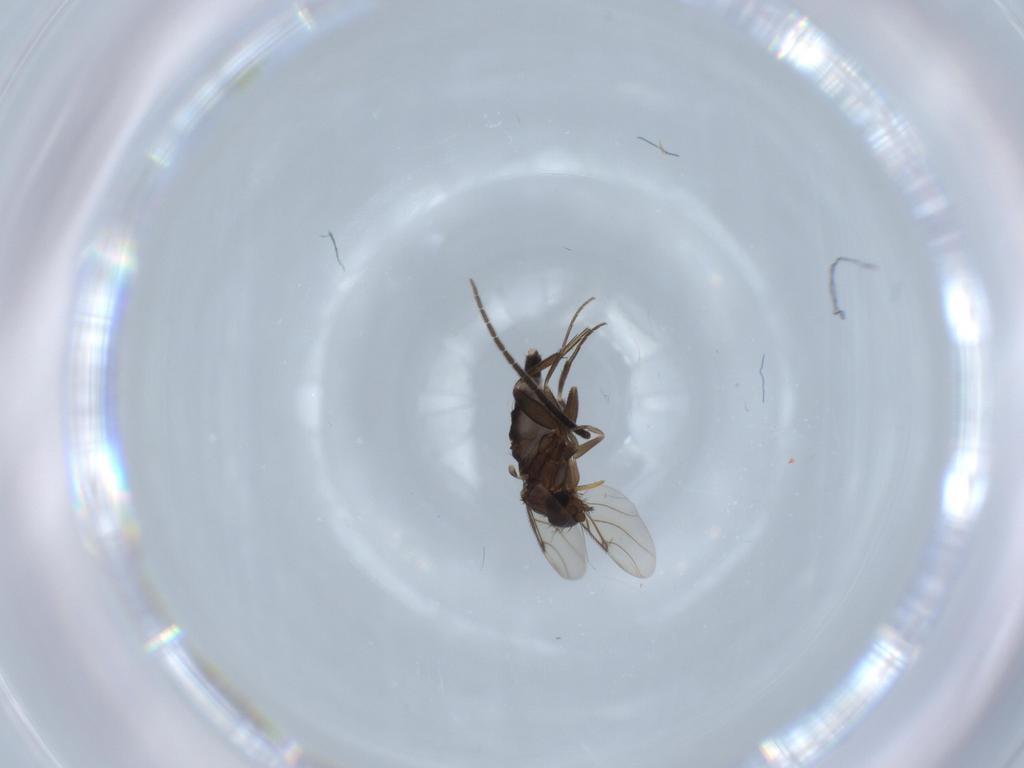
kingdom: Animalia
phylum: Arthropoda
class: Insecta
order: Diptera
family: Sciaridae
